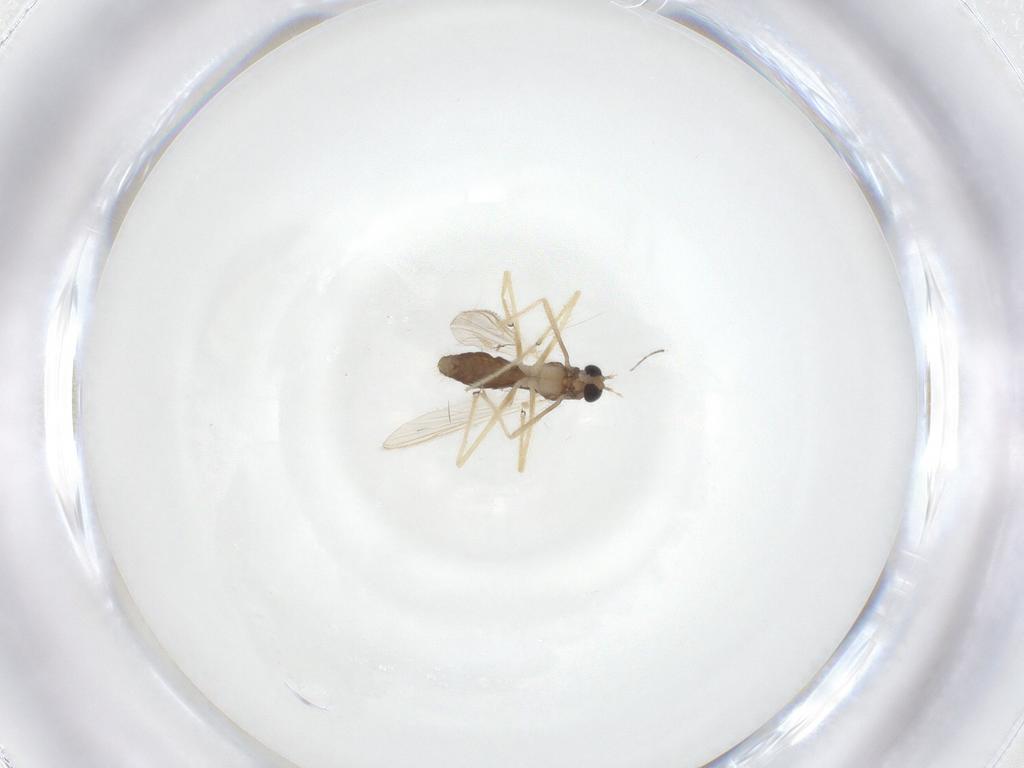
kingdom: Animalia
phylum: Arthropoda
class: Insecta
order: Diptera
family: Chironomidae
